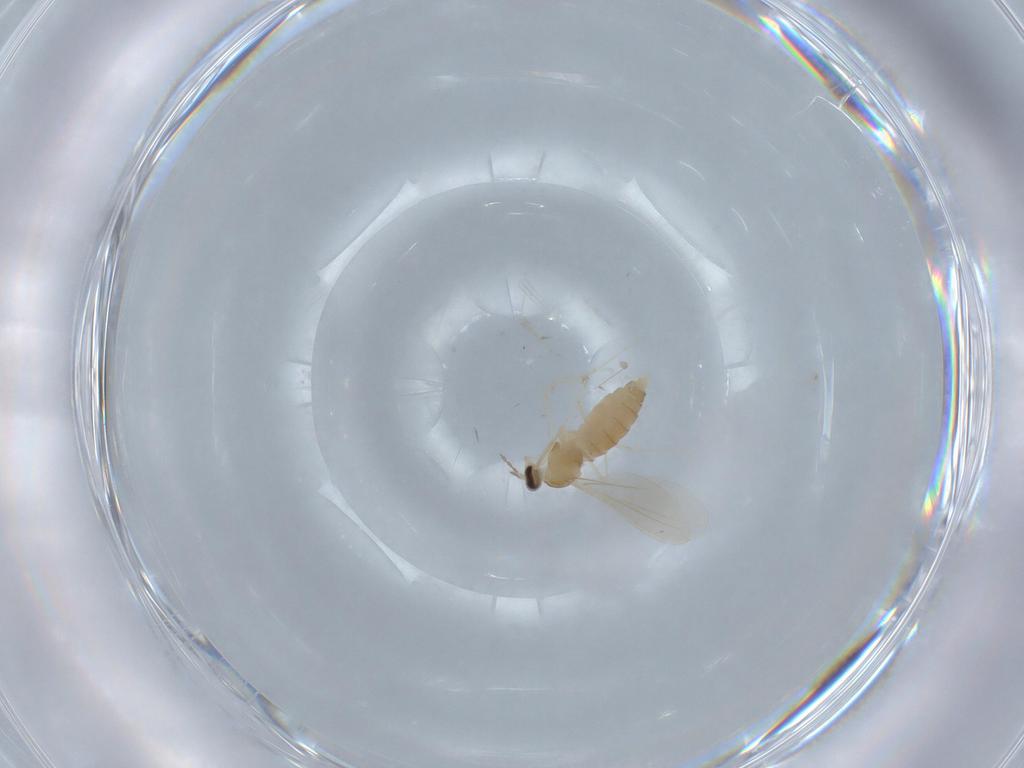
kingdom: Animalia
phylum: Arthropoda
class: Insecta
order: Diptera
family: Cecidomyiidae
